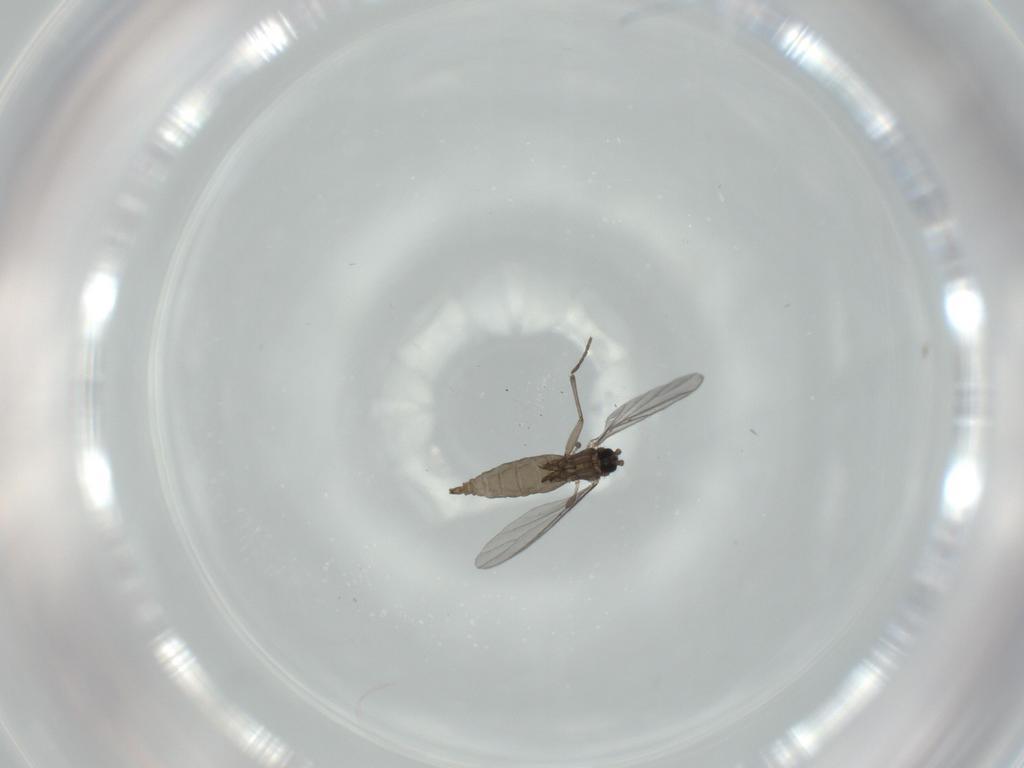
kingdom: Animalia
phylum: Arthropoda
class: Insecta
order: Diptera
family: Sciaridae
